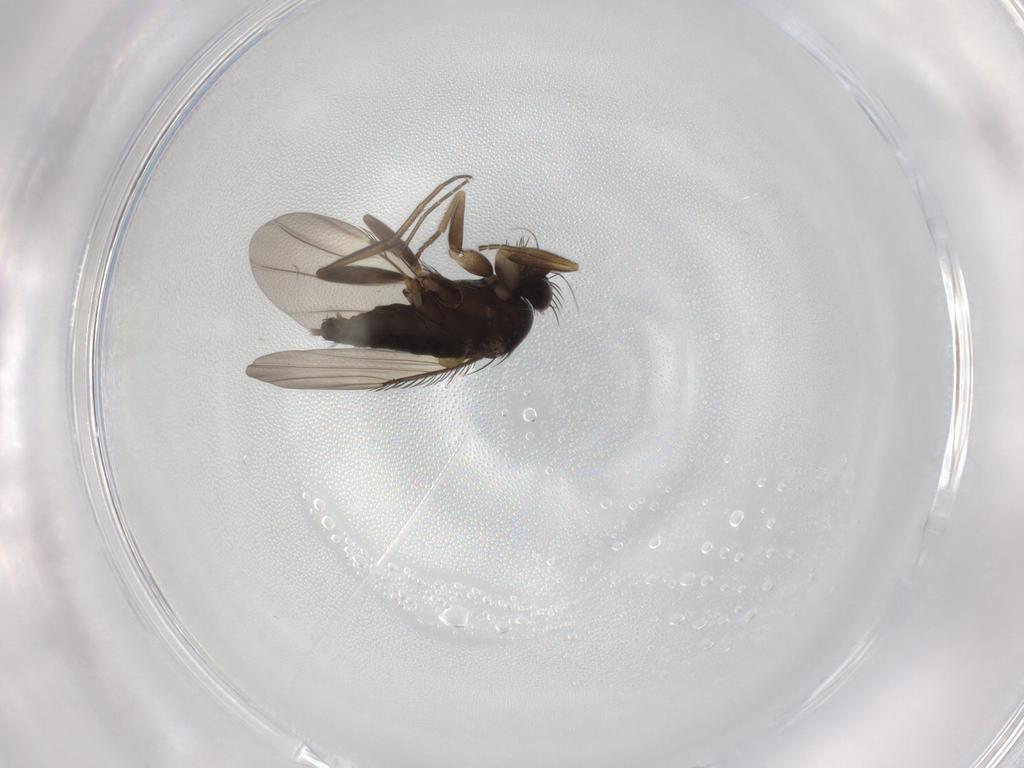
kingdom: Animalia
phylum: Arthropoda
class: Insecta
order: Diptera
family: Phoridae
